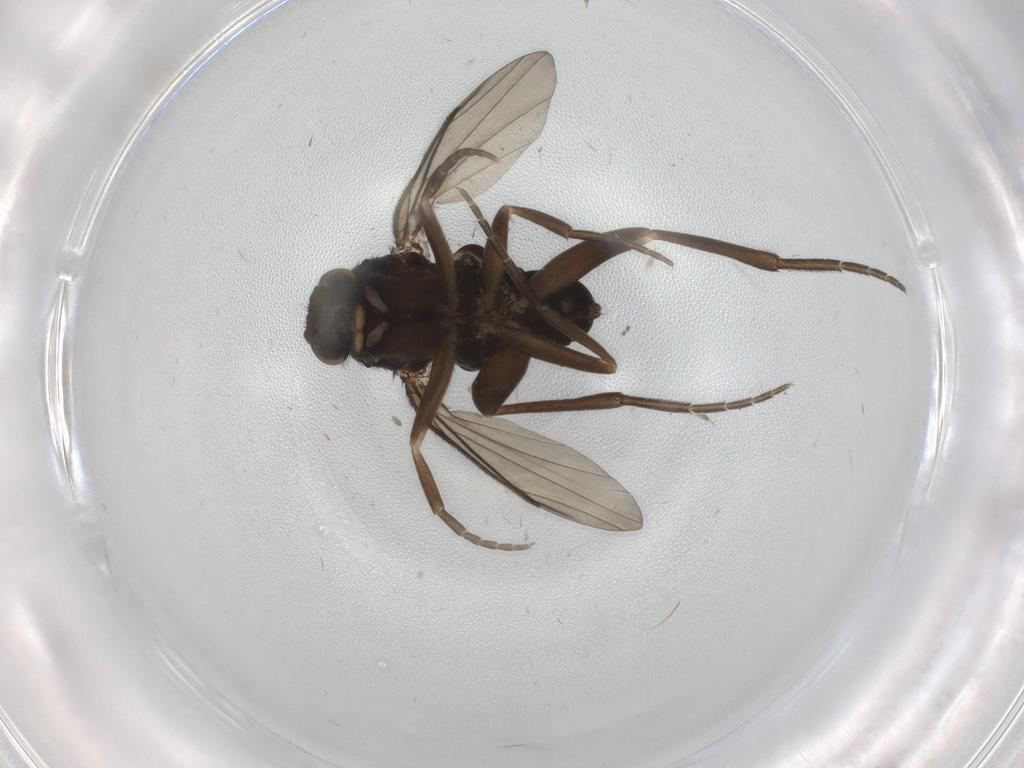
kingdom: Animalia
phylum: Arthropoda
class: Insecta
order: Diptera
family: Phoridae
